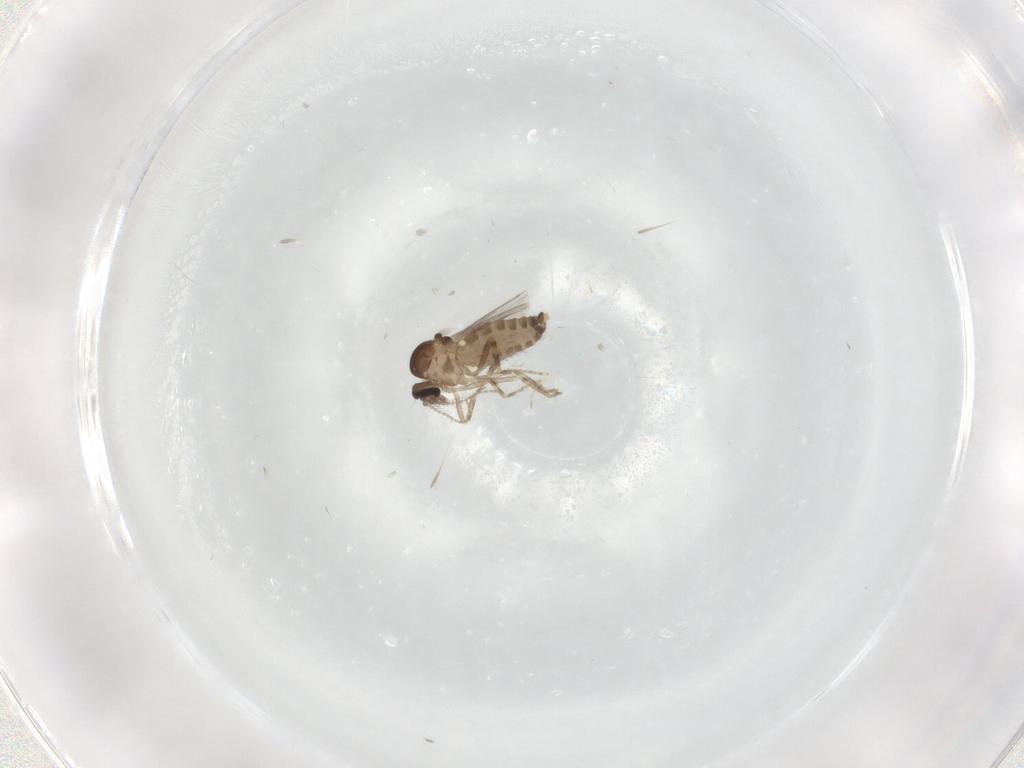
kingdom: Animalia
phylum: Arthropoda
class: Insecta
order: Diptera
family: Ceratopogonidae
